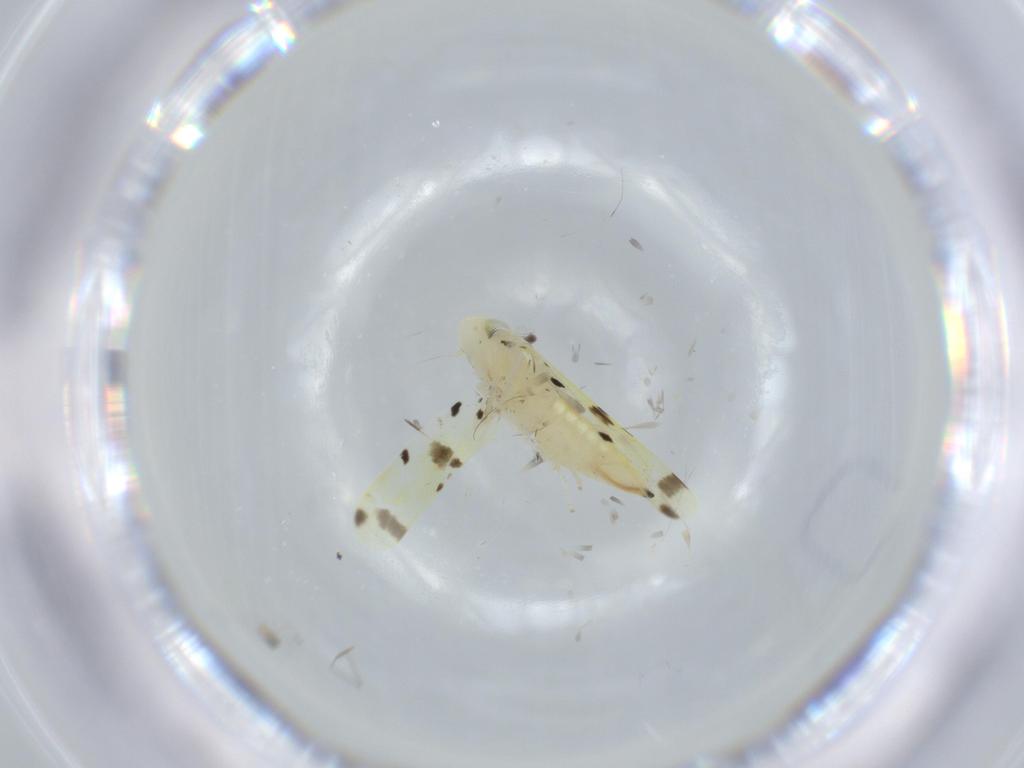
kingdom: Animalia
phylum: Arthropoda
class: Insecta
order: Hemiptera
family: Cicadellidae
